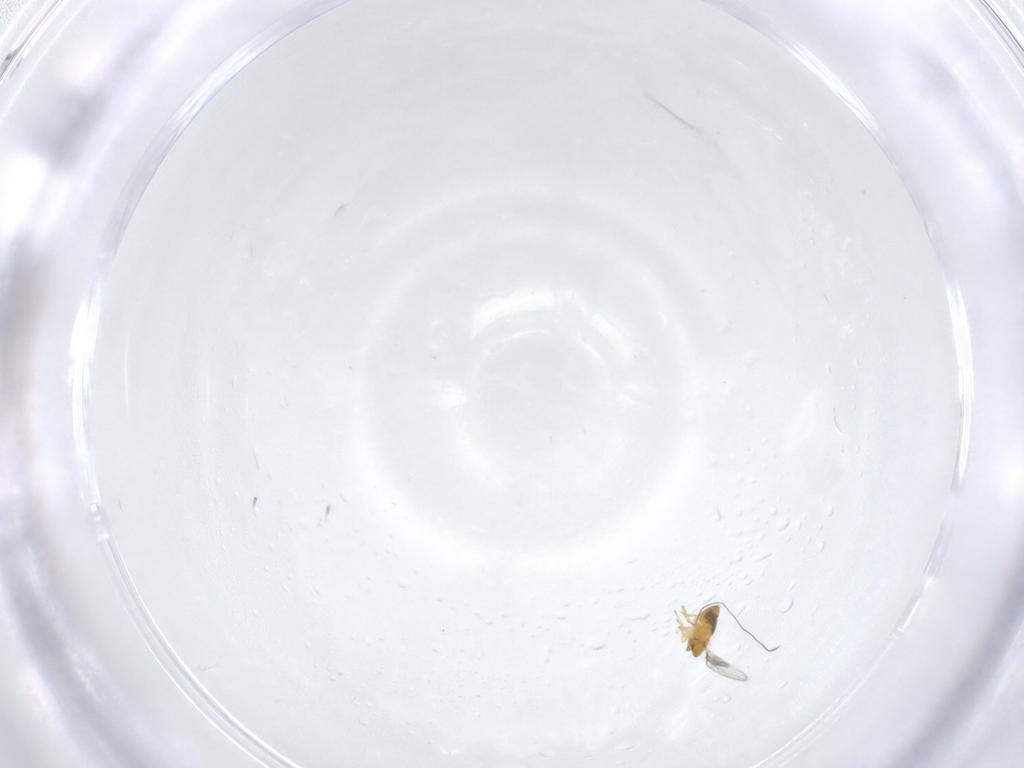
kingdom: Animalia
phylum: Arthropoda
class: Insecta
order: Hymenoptera
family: Trichogrammatidae
